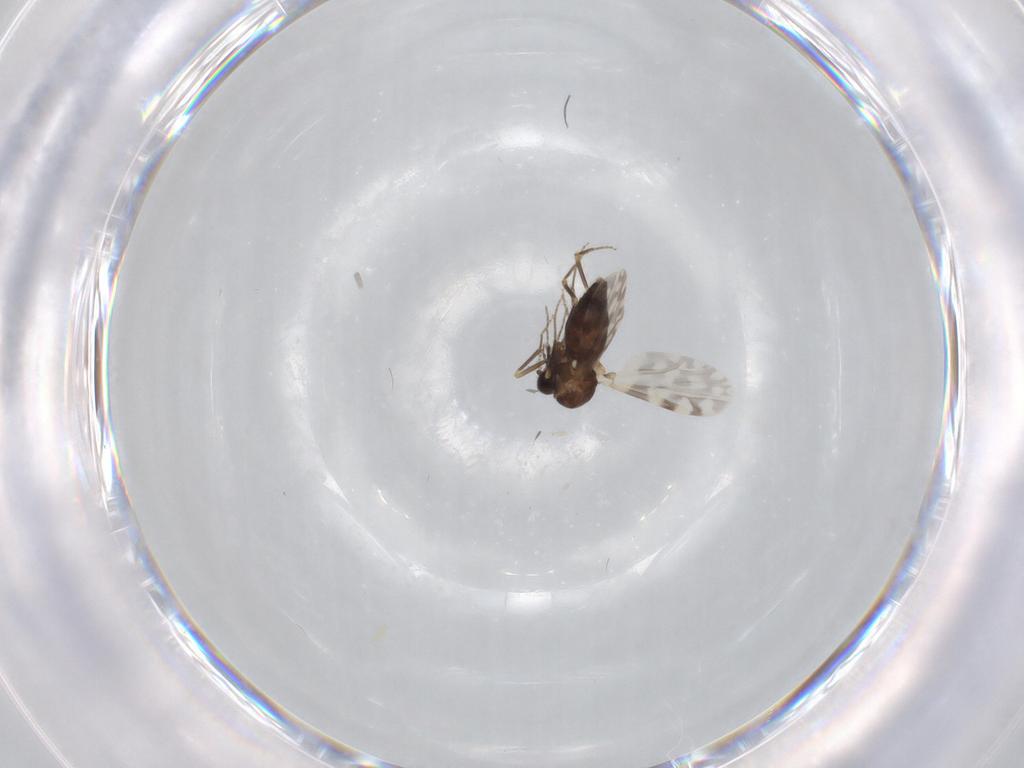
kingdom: Animalia
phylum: Arthropoda
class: Insecta
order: Diptera
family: Ceratopogonidae
